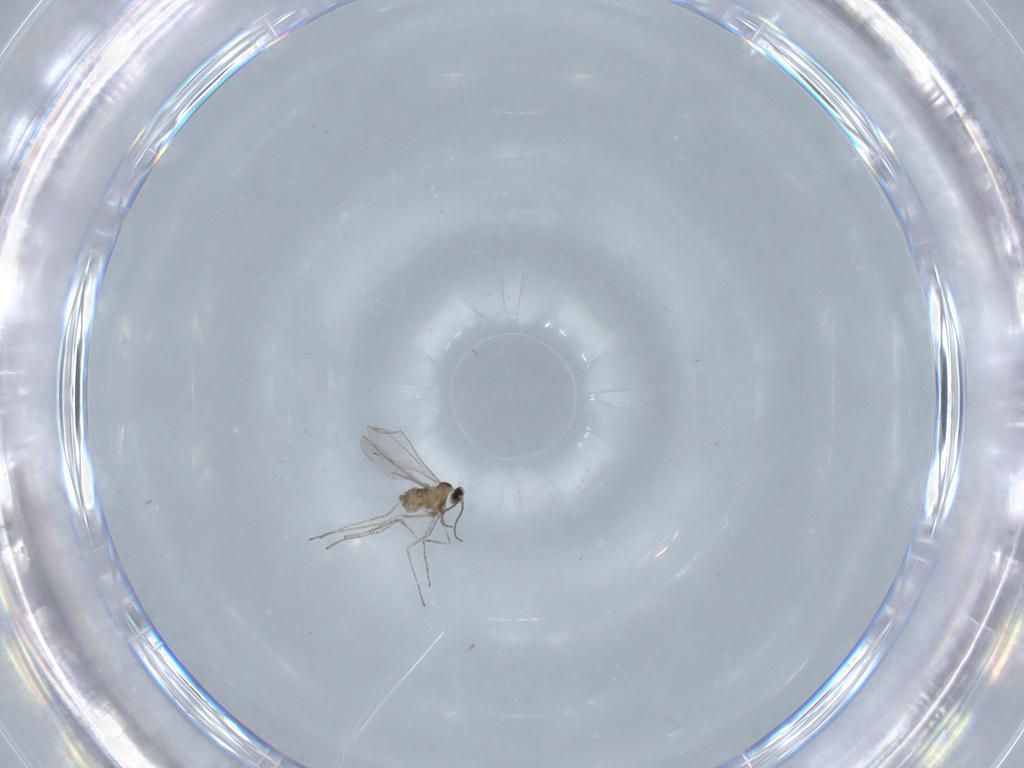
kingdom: Animalia
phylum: Arthropoda
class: Insecta
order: Diptera
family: Cecidomyiidae
